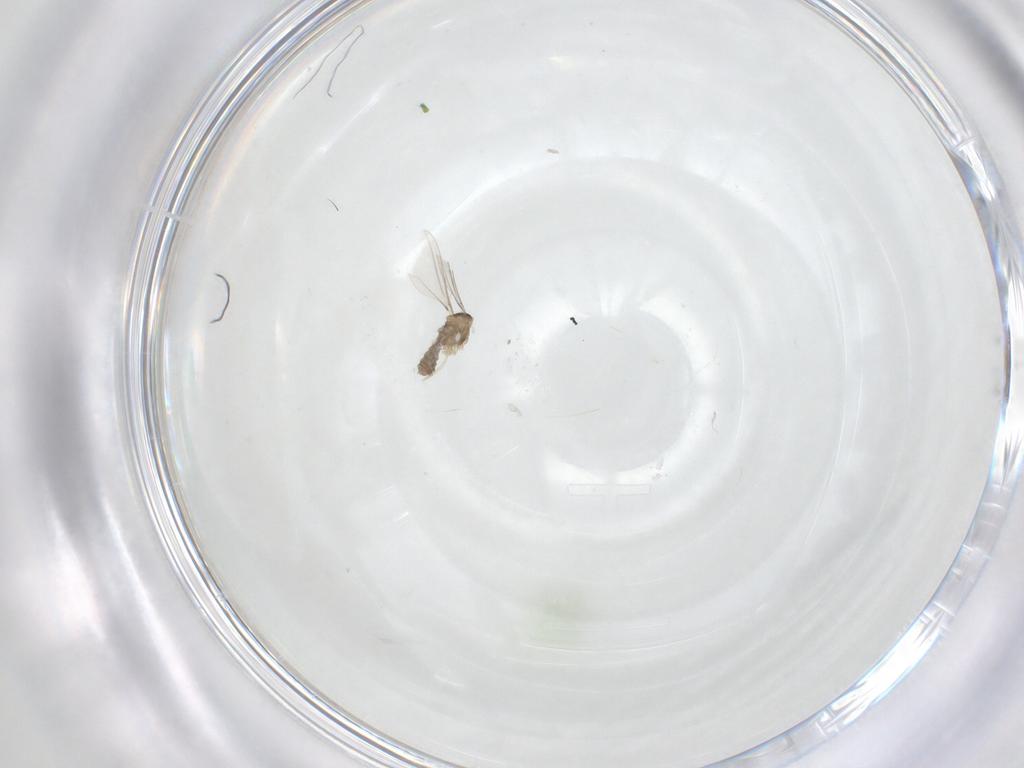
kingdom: Animalia
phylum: Arthropoda
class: Insecta
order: Diptera
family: Cecidomyiidae
